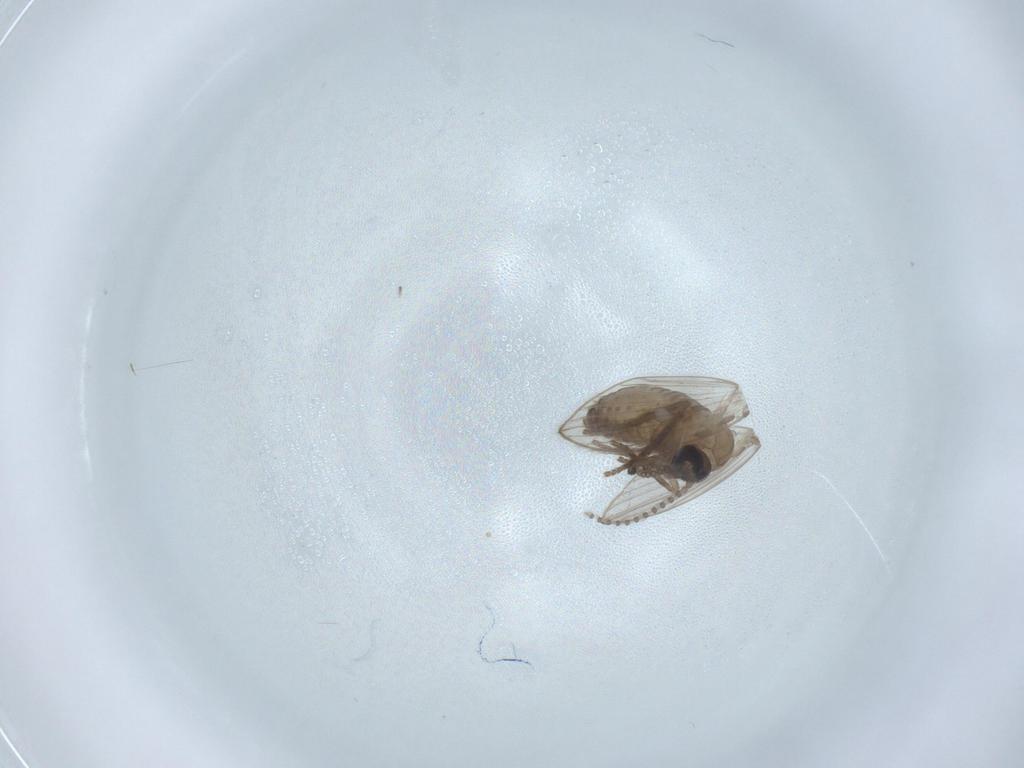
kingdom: Animalia
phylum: Arthropoda
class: Insecta
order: Diptera
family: Psychodidae
